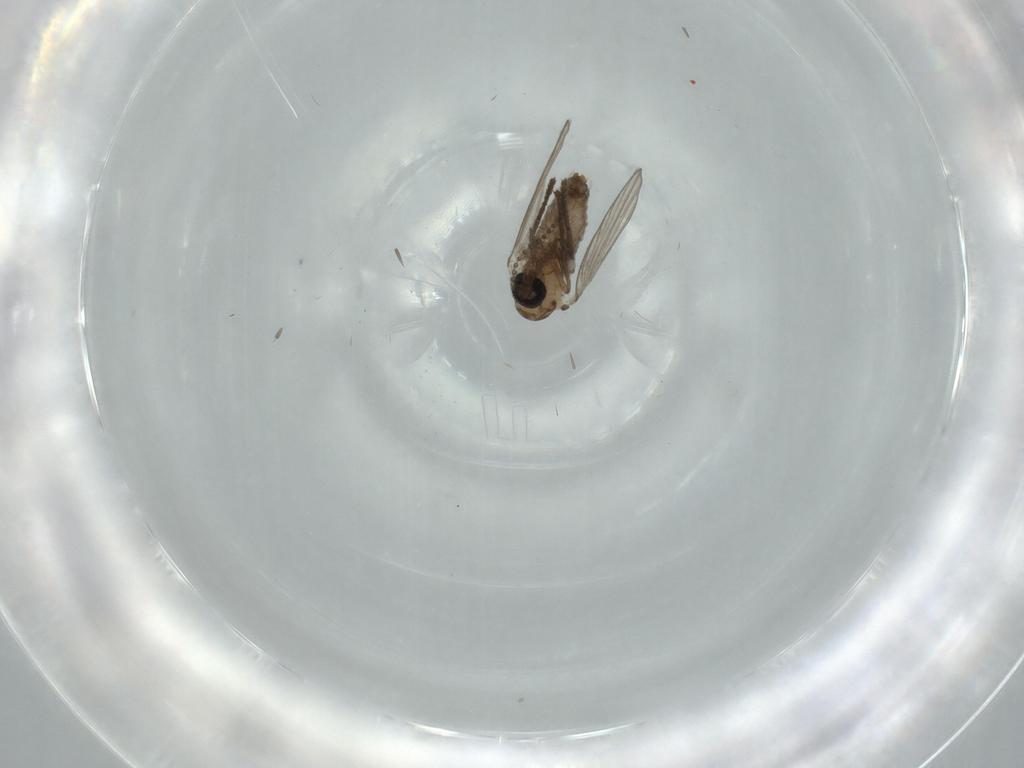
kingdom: Animalia
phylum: Arthropoda
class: Insecta
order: Diptera
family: Psychodidae
